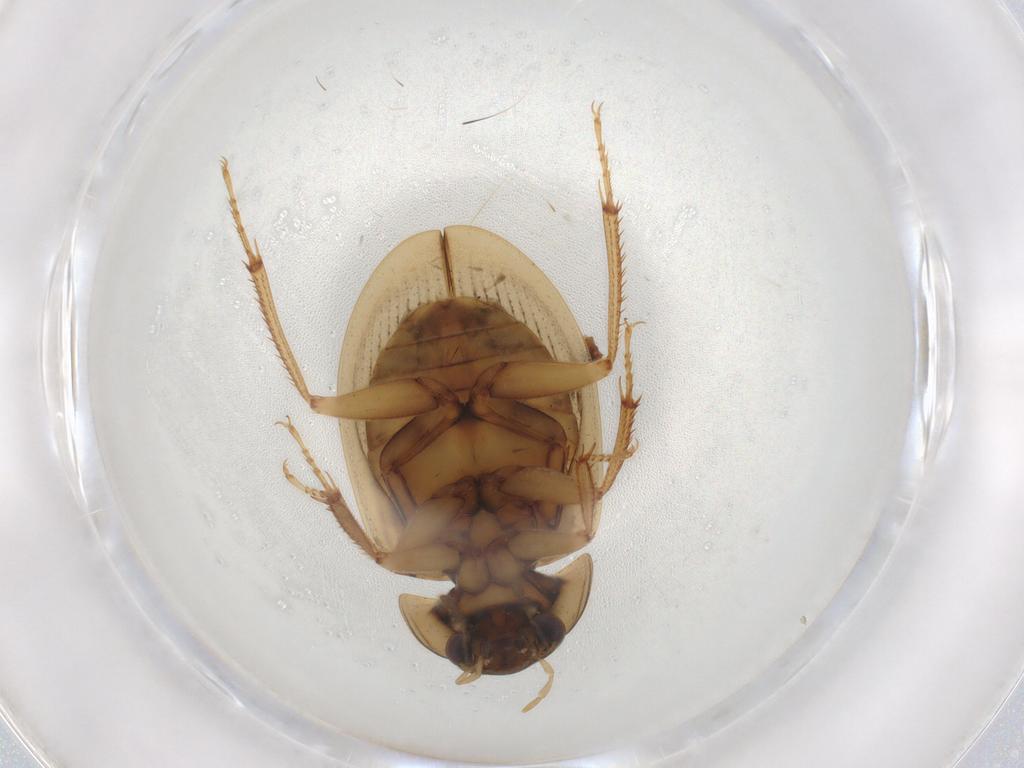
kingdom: Animalia
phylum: Arthropoda
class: Insecta
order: Coleoptera
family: Hydrophilidae
